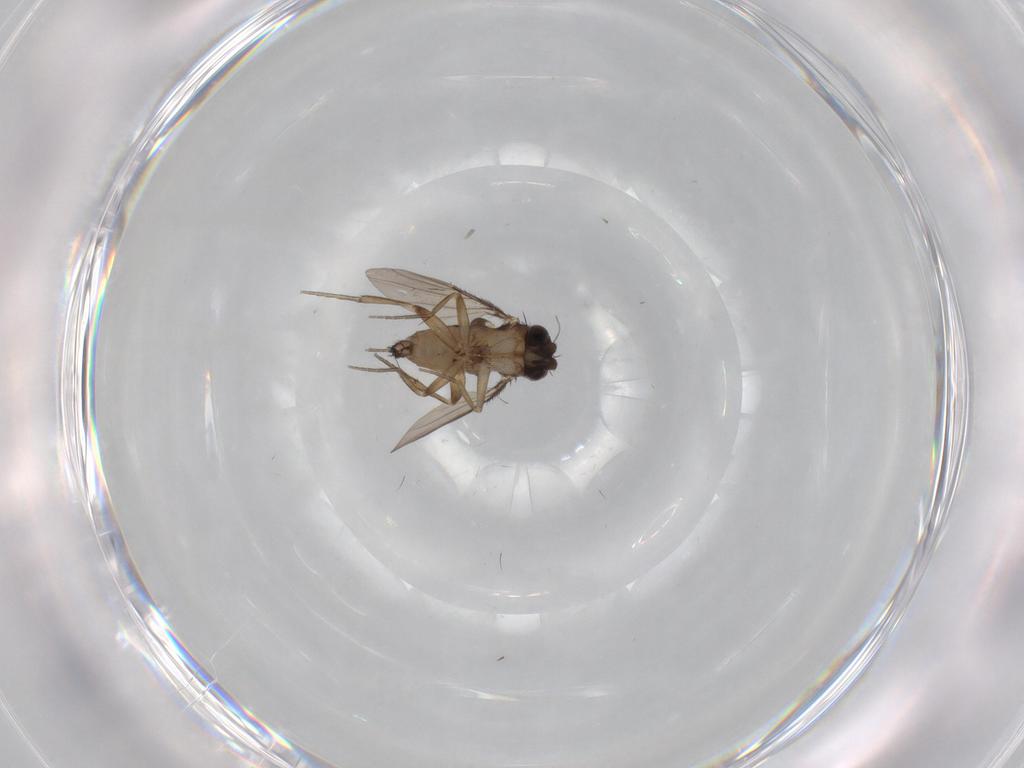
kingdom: Animalia
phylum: Arthropoda
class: Insecta
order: Diptera
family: Phoridae
